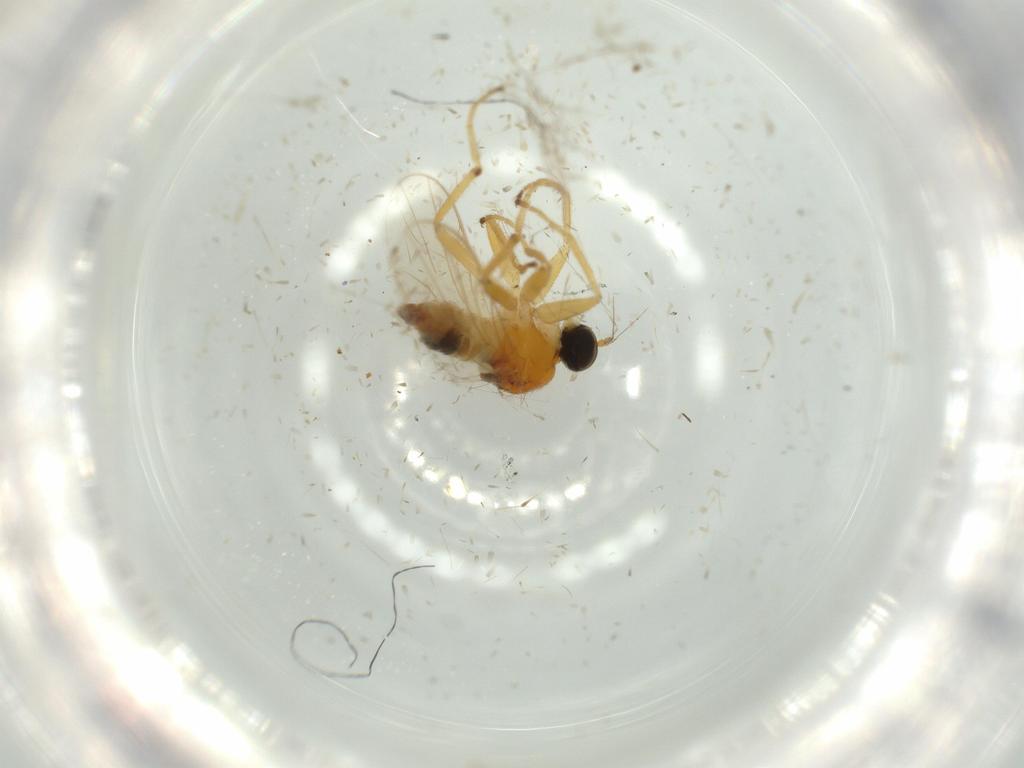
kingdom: Animalia
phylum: Arthropoda
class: Insecta
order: Diptera
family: Hybotidae
